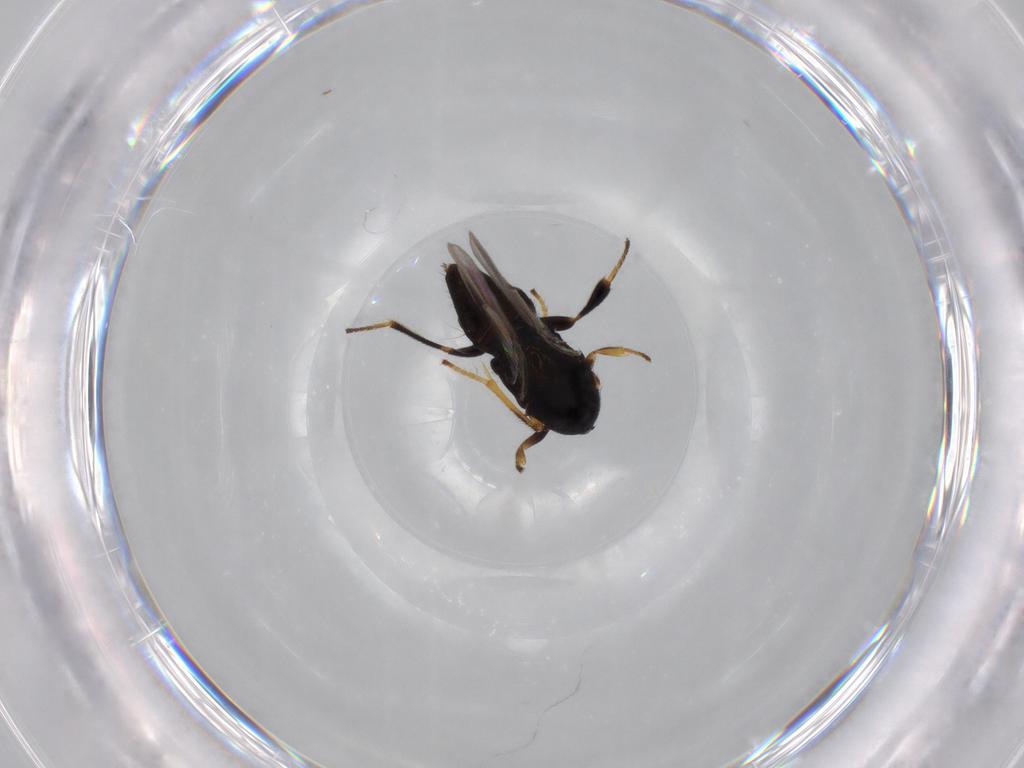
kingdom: Animalia
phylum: Arthropoda
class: Insecta
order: Hymenoptera
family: Encyrtidae
